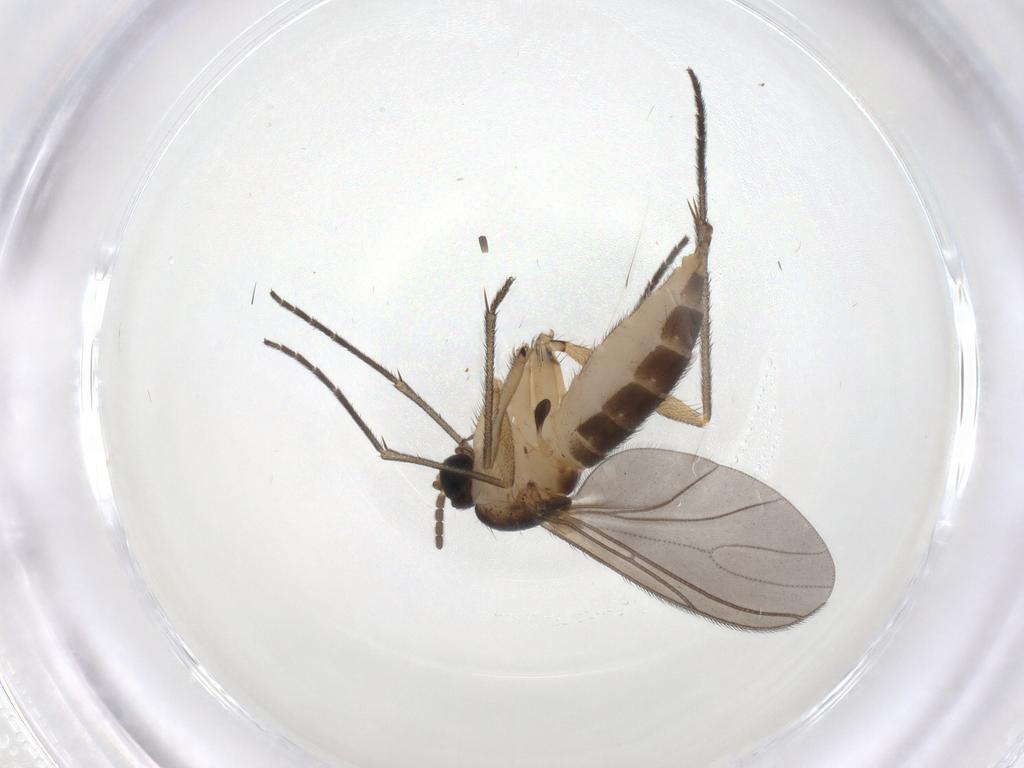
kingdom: Animalia
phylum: Arthropoda
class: Insecta
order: Diptera
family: Sciaridae
